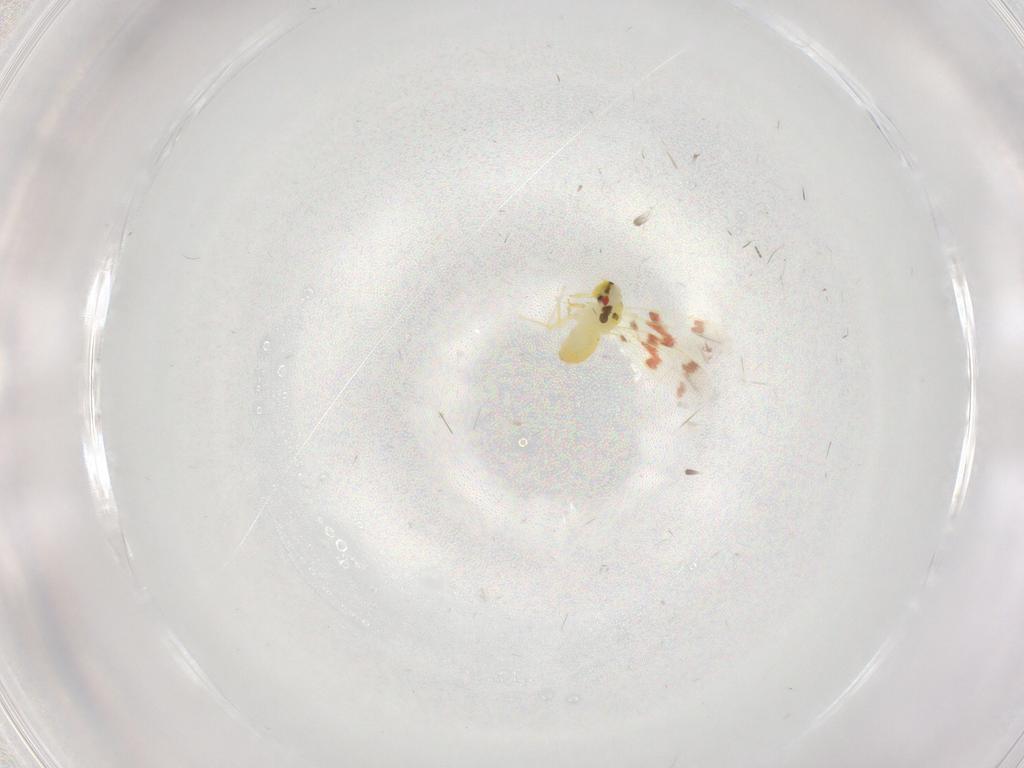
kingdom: Animalia
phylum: Arthropoda
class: Insecta
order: Hemiptera
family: Aleyrodidae
